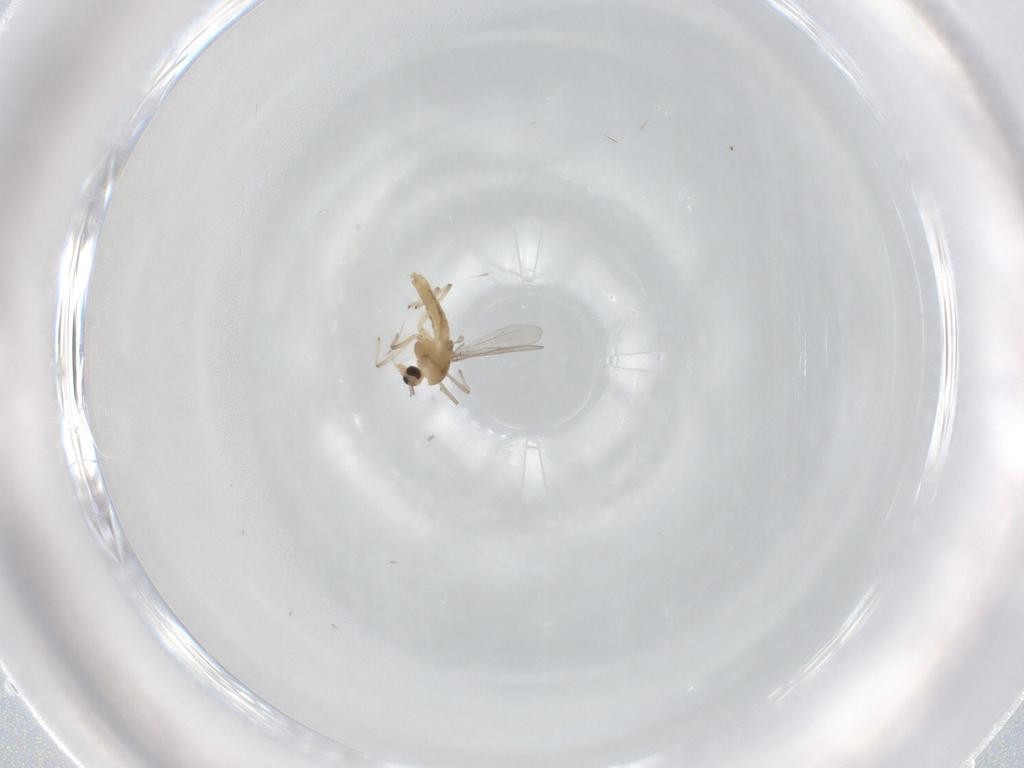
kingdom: Animalia
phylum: Arthropoda
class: Insecta
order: Diptera
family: Chironomidae
